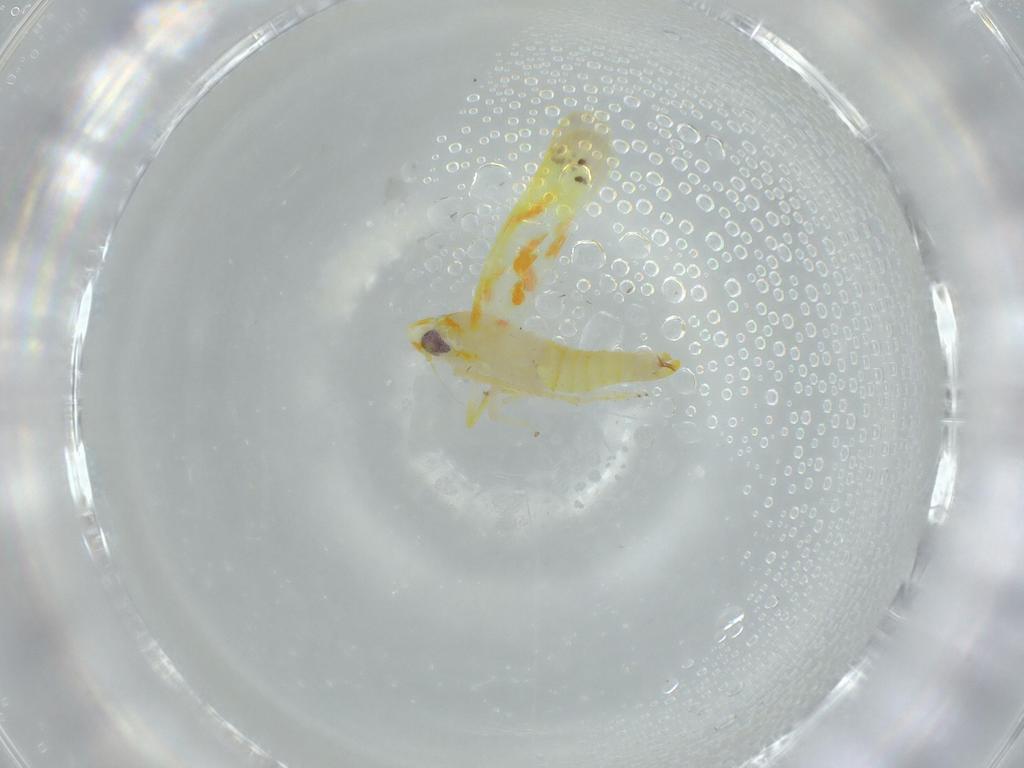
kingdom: Animalia
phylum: Arthropoda
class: Insecta
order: Hemiptera
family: Cicadellidae
